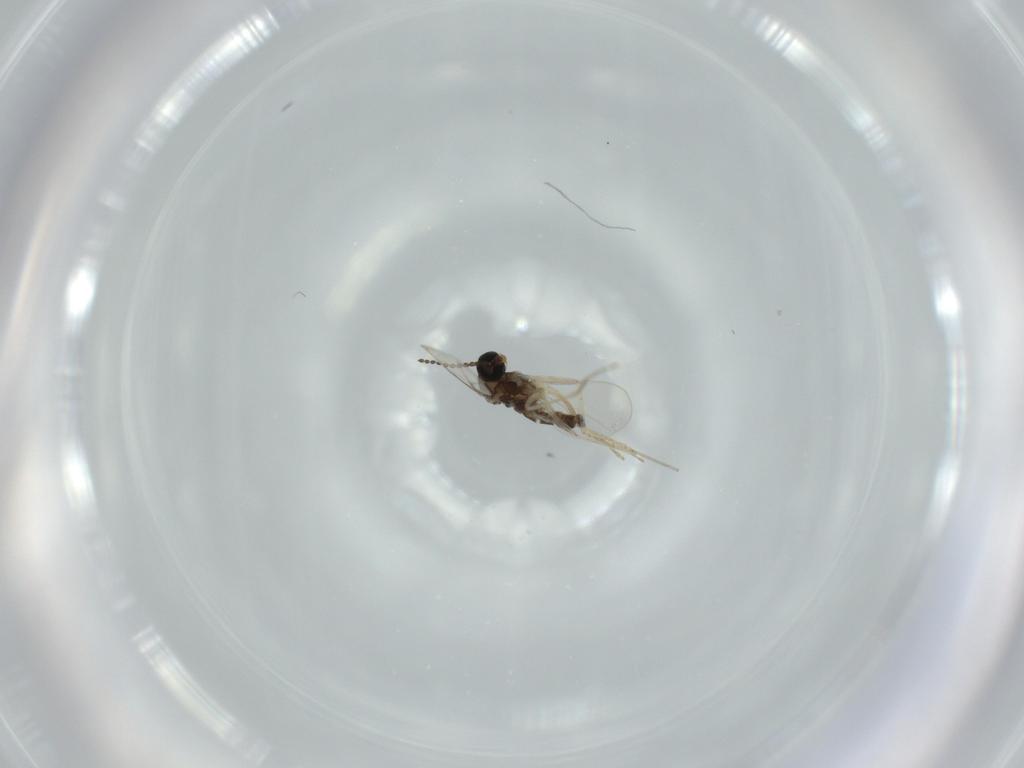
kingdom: Animalia
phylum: Arthropoda
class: Insecta
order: Diptera
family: Cecidomyiidae
